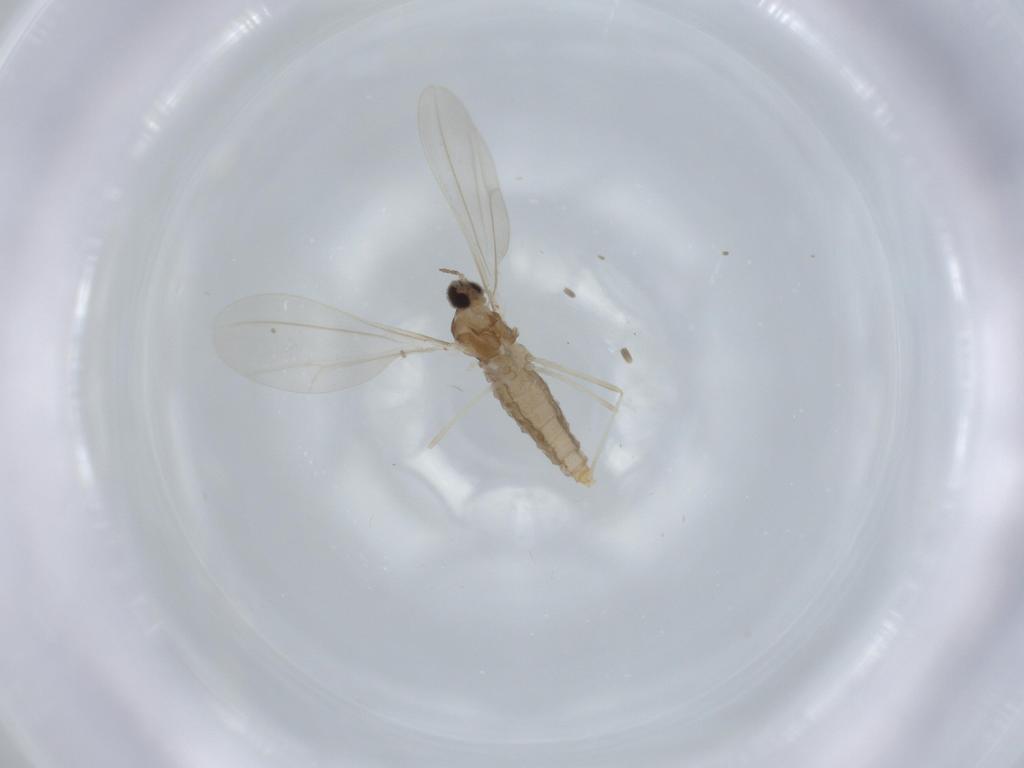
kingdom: Animalia
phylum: Arthropoda
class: Insecta
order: Diptera
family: Cecidomyiidae
